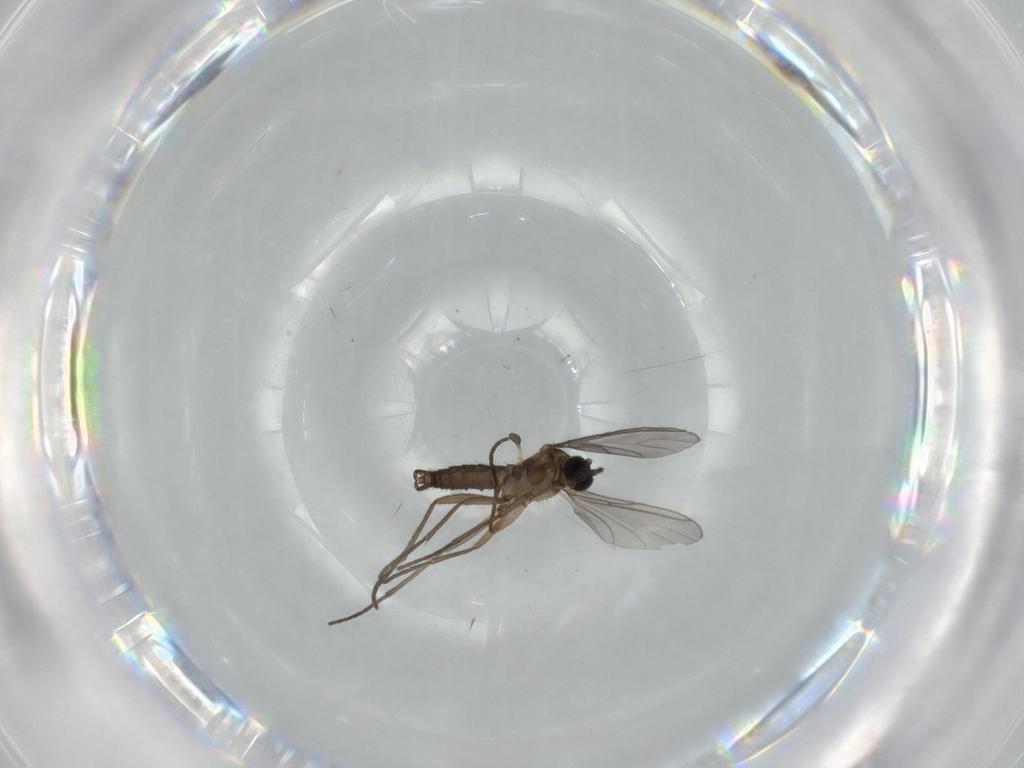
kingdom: Animalia
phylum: Arthropoda
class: Insecta
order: Diptera
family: Sciaridae
